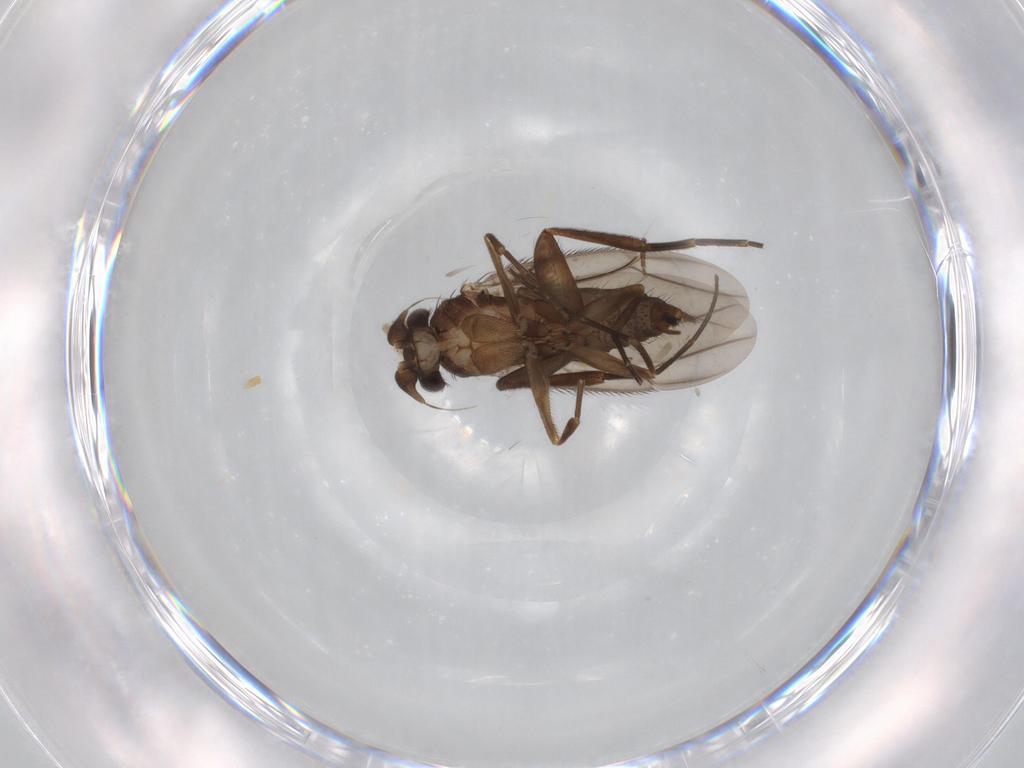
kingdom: Animalia
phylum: Arthropoda
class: Insecta
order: Diptera
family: Phoridae
